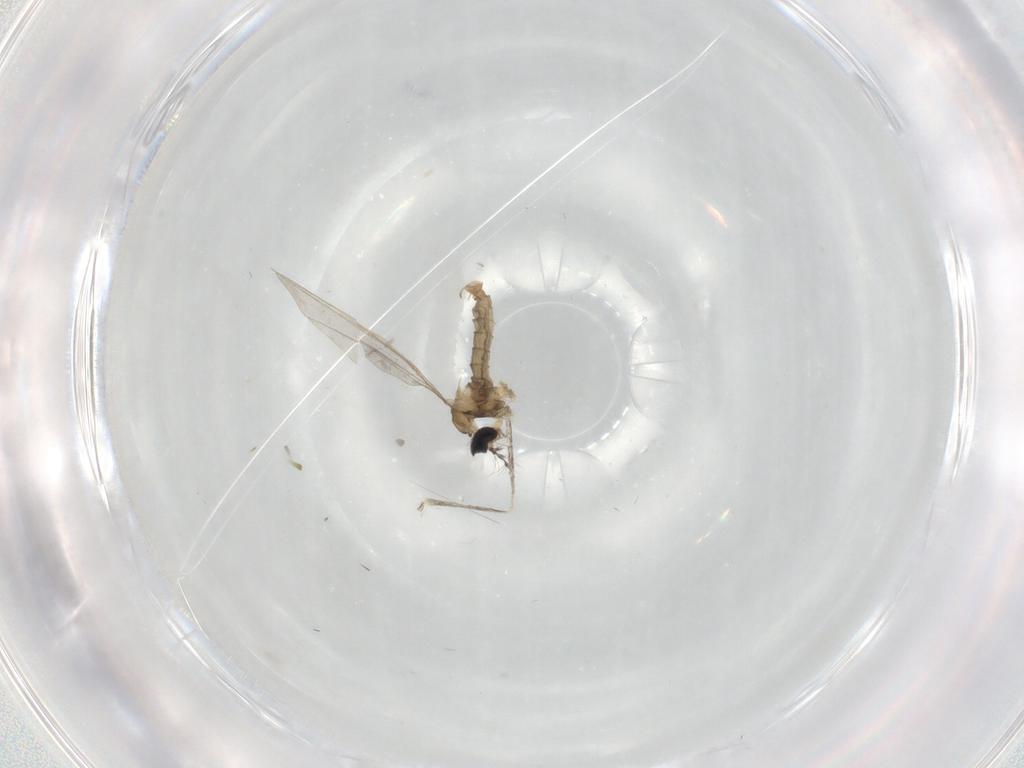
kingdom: Animalia
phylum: Arthropoda
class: Insecta
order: Diptera
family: Cecidomyiidae
